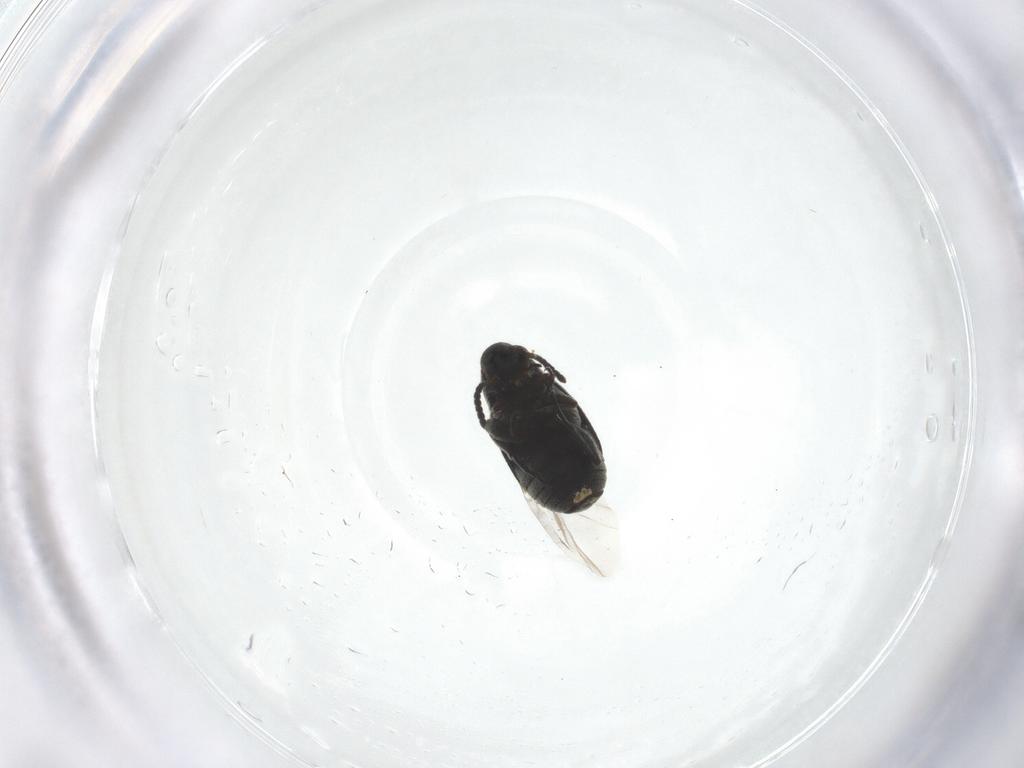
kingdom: Animalia
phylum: Arthropoda
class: Insecta
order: Coleoptera
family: Chrysomelidae
